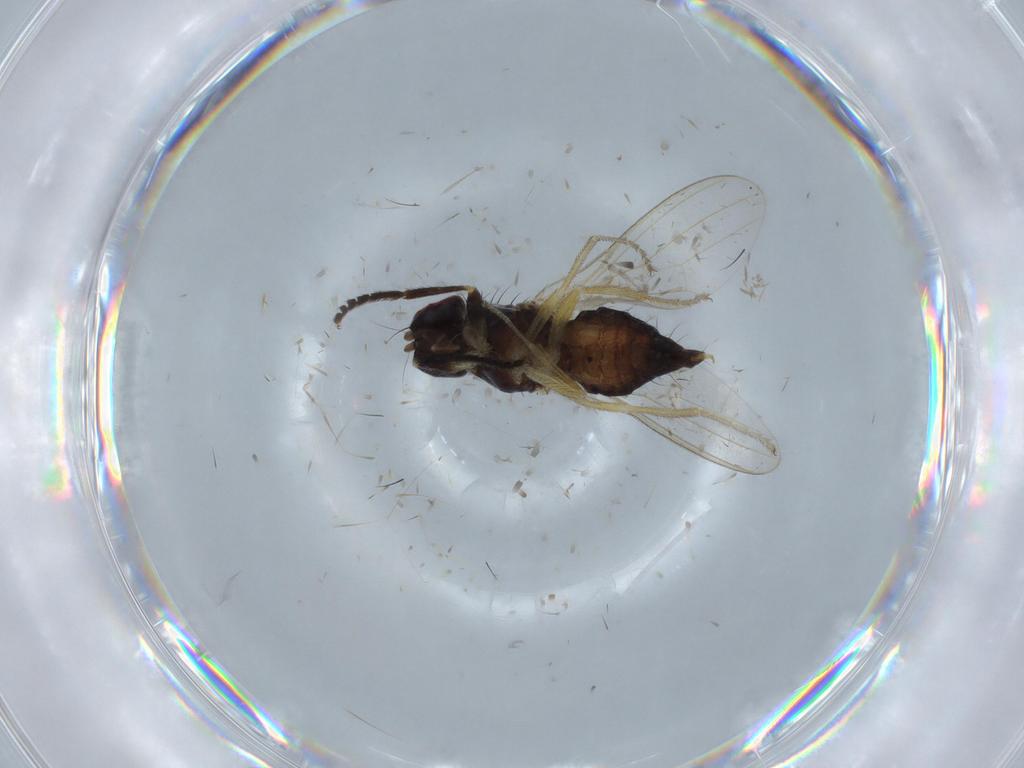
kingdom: Animalia
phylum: Arthropoda
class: Insecta
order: Diptera
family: Piophilidae
